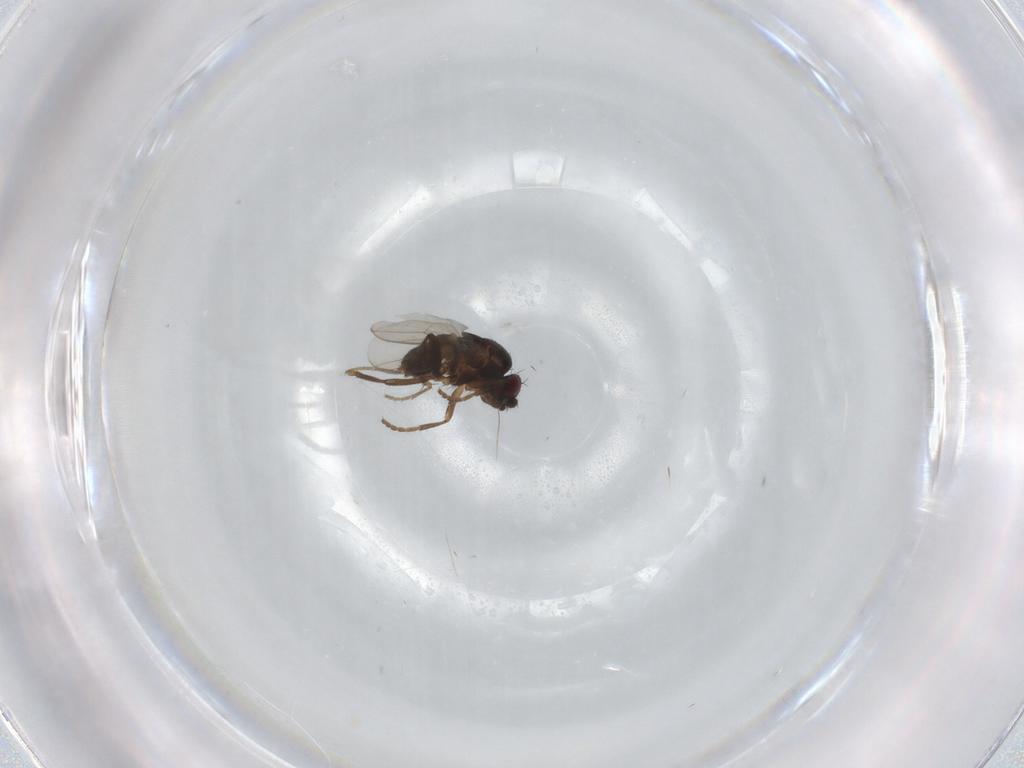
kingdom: Animalia
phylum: Arthropoda
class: Insecta
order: Diptera
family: Sphaeroceridae
